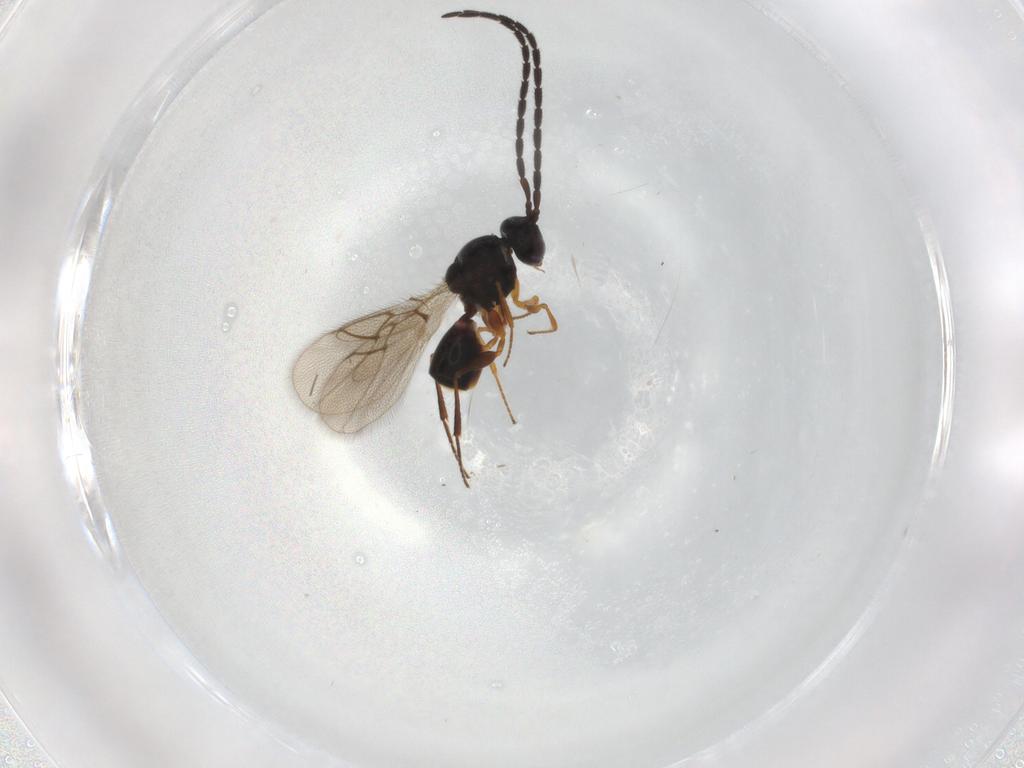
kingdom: Animalia
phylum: Arthropoda
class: Insecta
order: Hymenoptera
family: Figitidae
